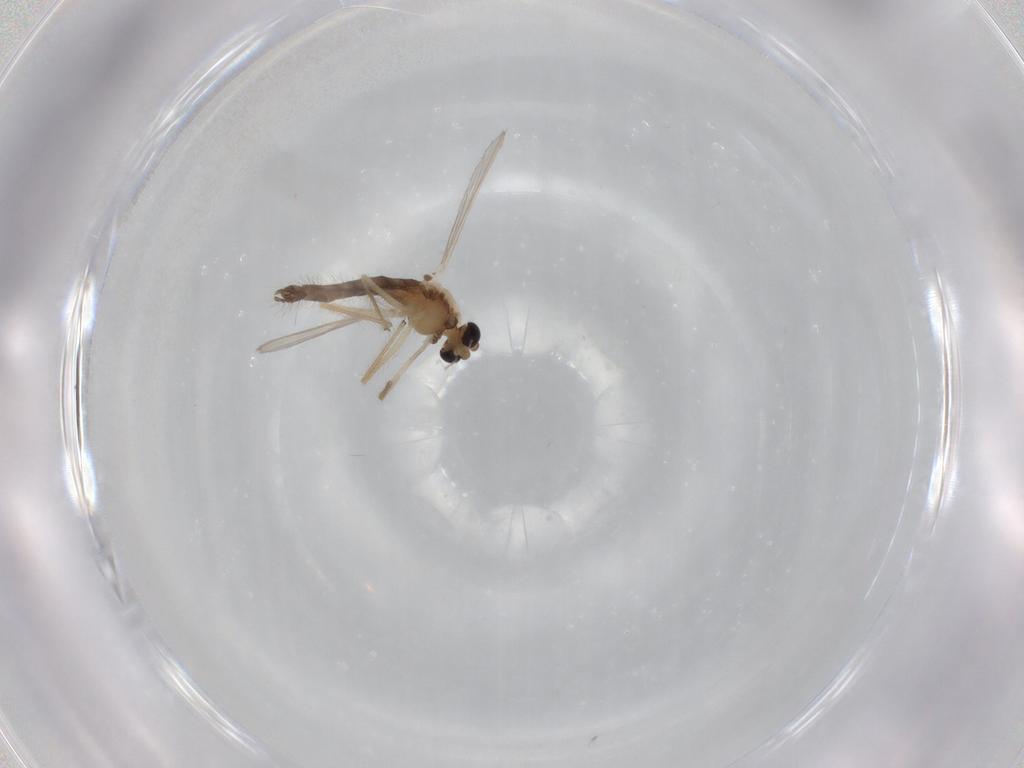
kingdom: Animalia
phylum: Arthropoda
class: Insecta
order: Diptera
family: Chironomidae
